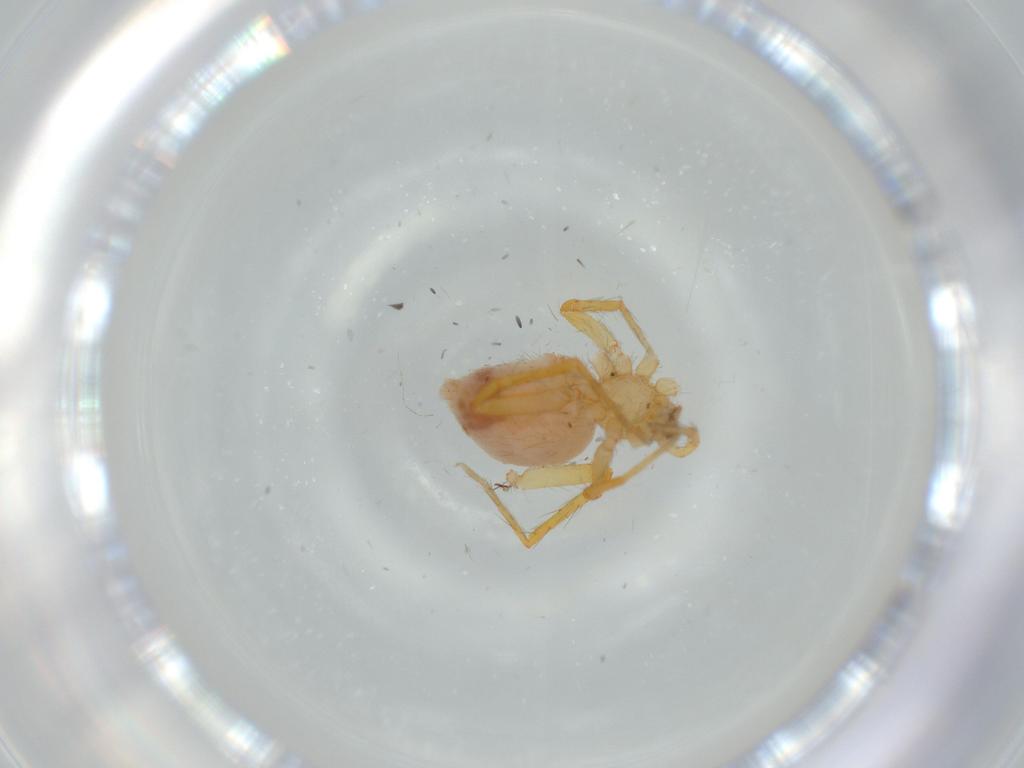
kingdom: Animalia
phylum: Arthropoda
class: Arachnida
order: Araneae
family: Oonopidae
